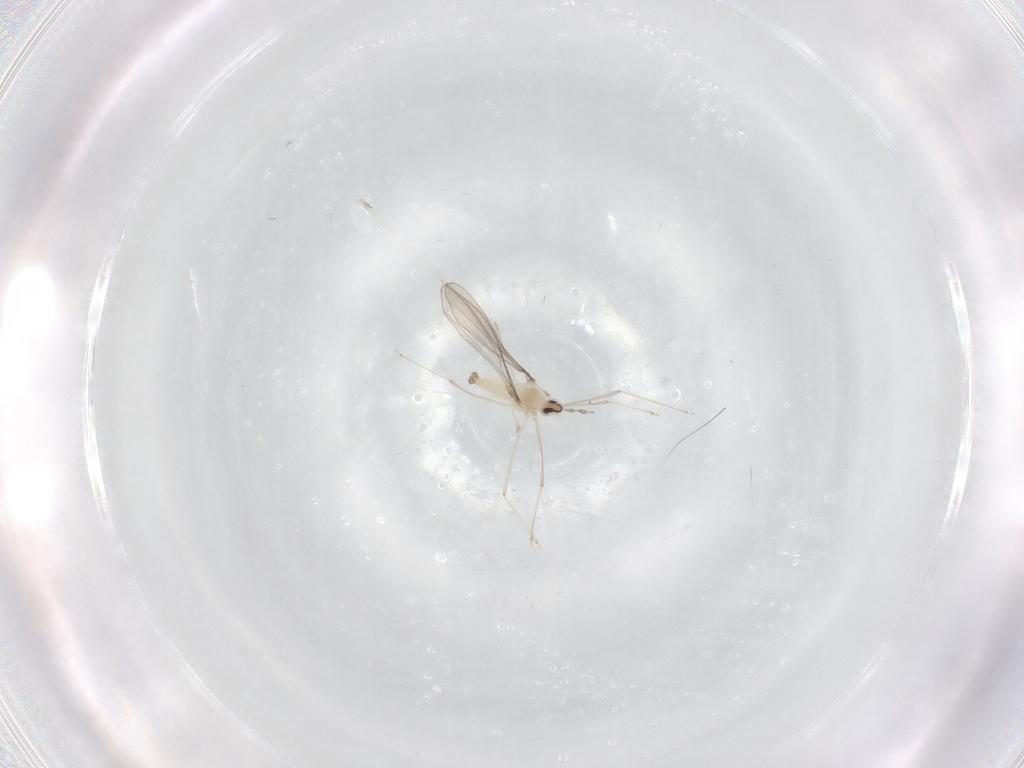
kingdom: Animalia
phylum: Arthropoda
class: Insecta
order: Diptera
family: Cecidomyiidae
